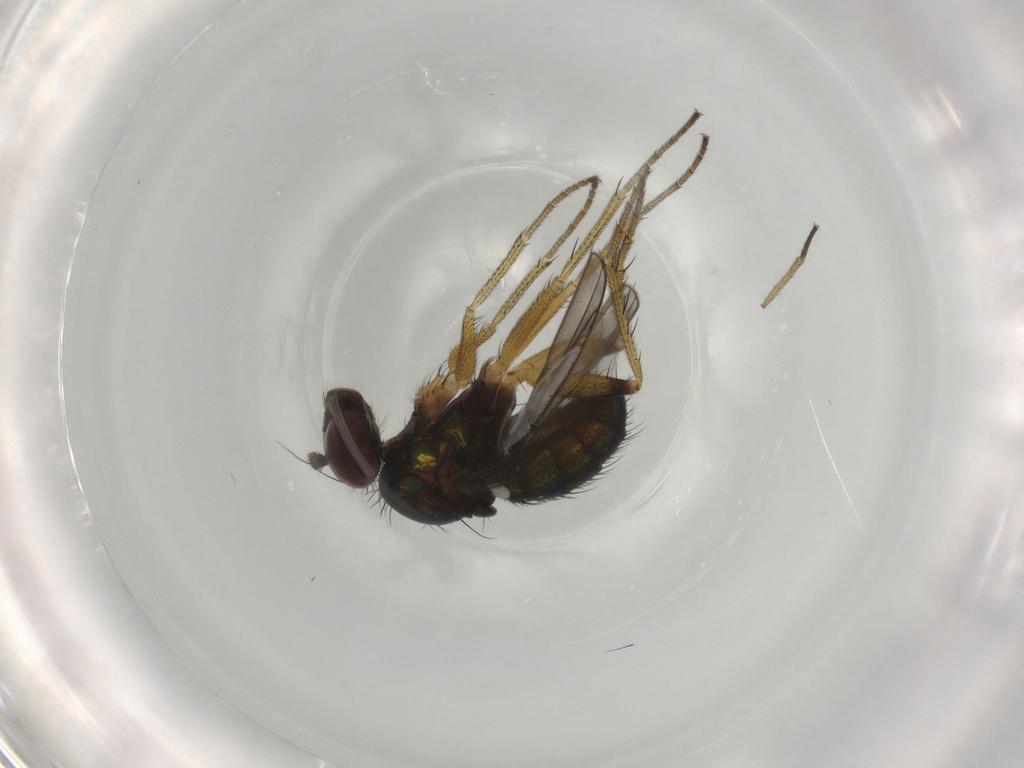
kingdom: Animalia
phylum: Arthropoda
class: Insecta
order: Diptera
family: Dolichopodidae
